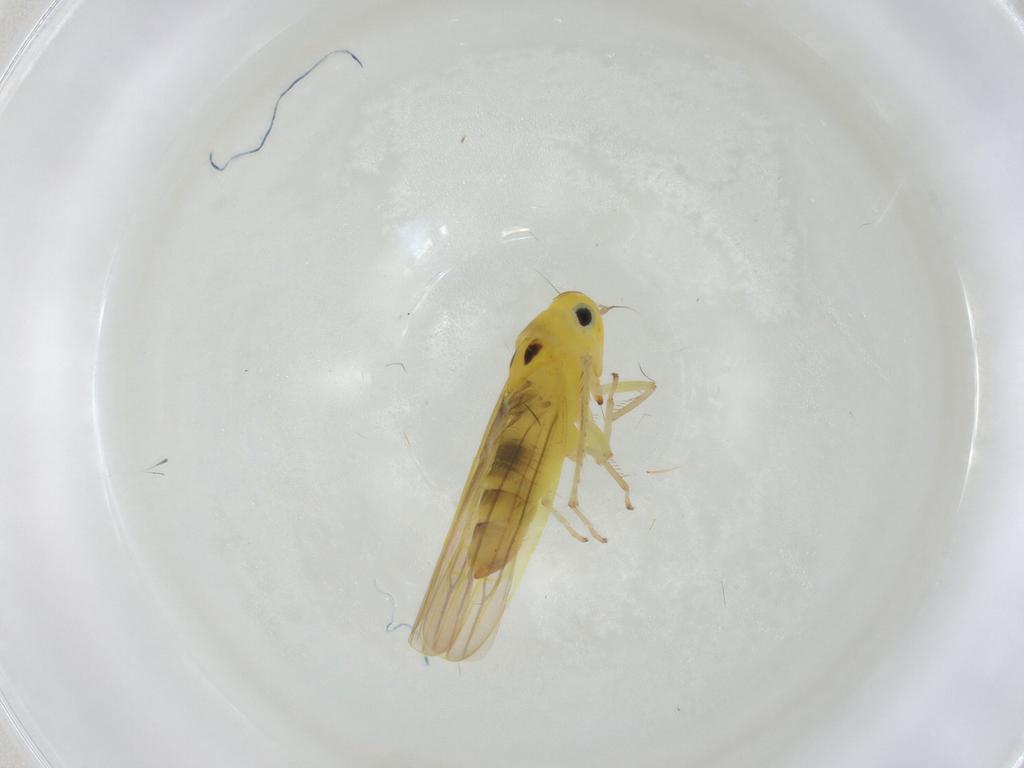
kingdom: Animalia
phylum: Arthropoda
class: Insecta
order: Hemiptera
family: Cicadellidae
